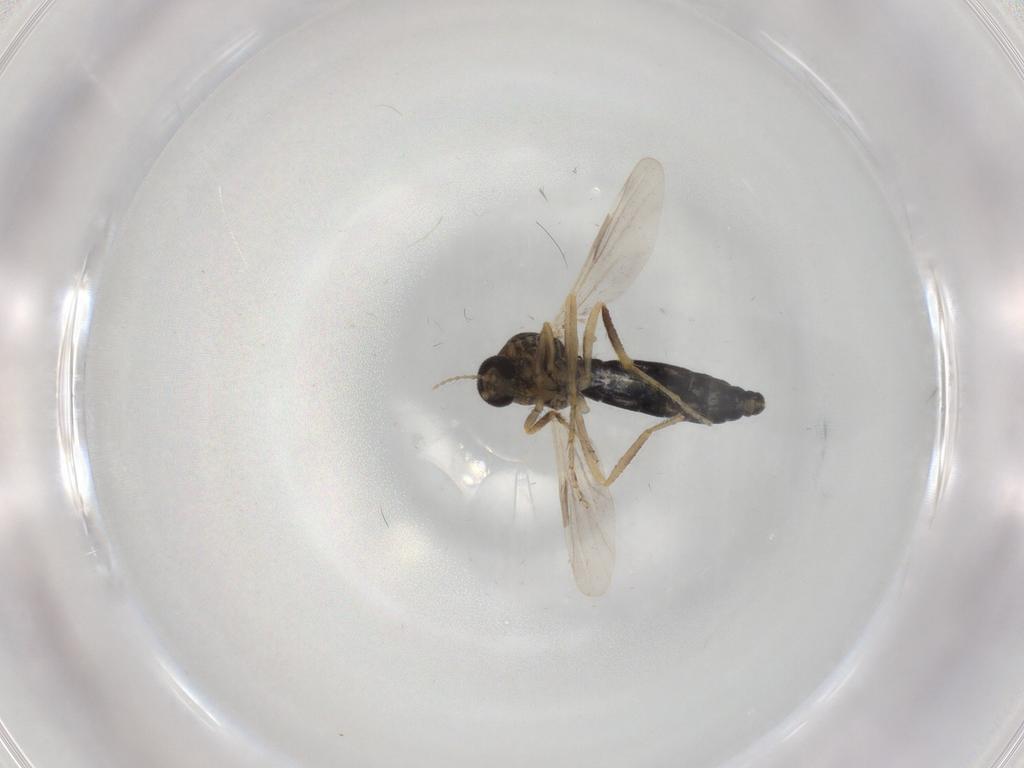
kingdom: Animalia
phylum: Arthropoda
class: Insecta
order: Diptera
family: Ceratopogonidae
